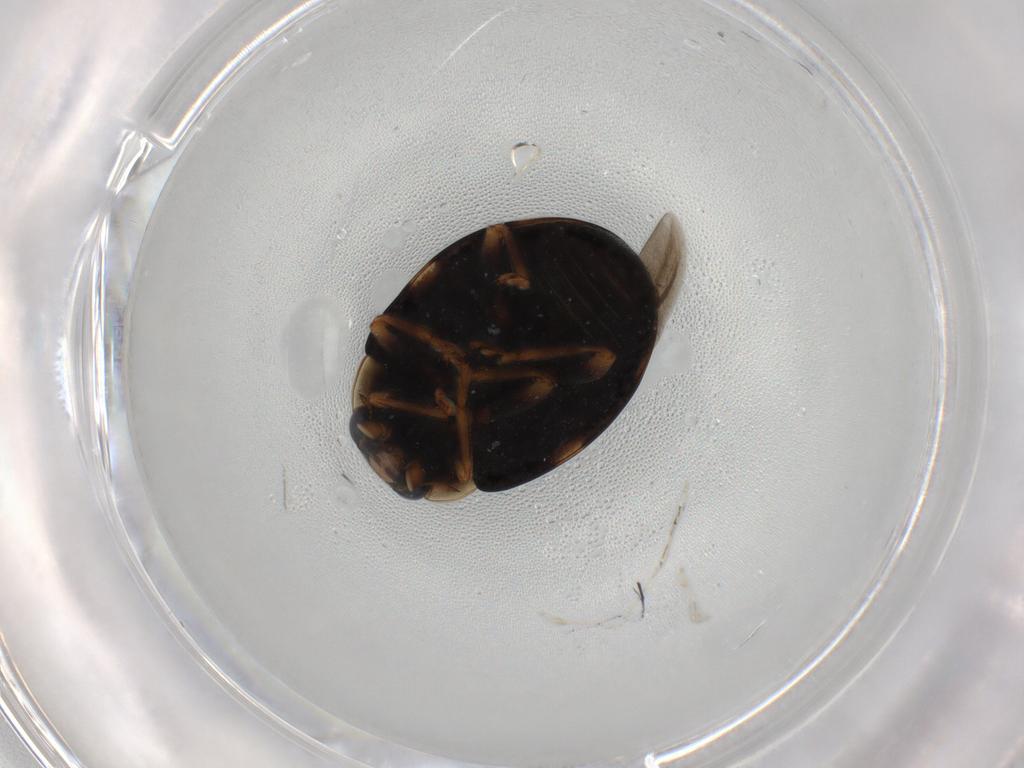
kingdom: Animalia
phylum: Arthropoda
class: Insecta
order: Coleoptera
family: Coccinellidae
